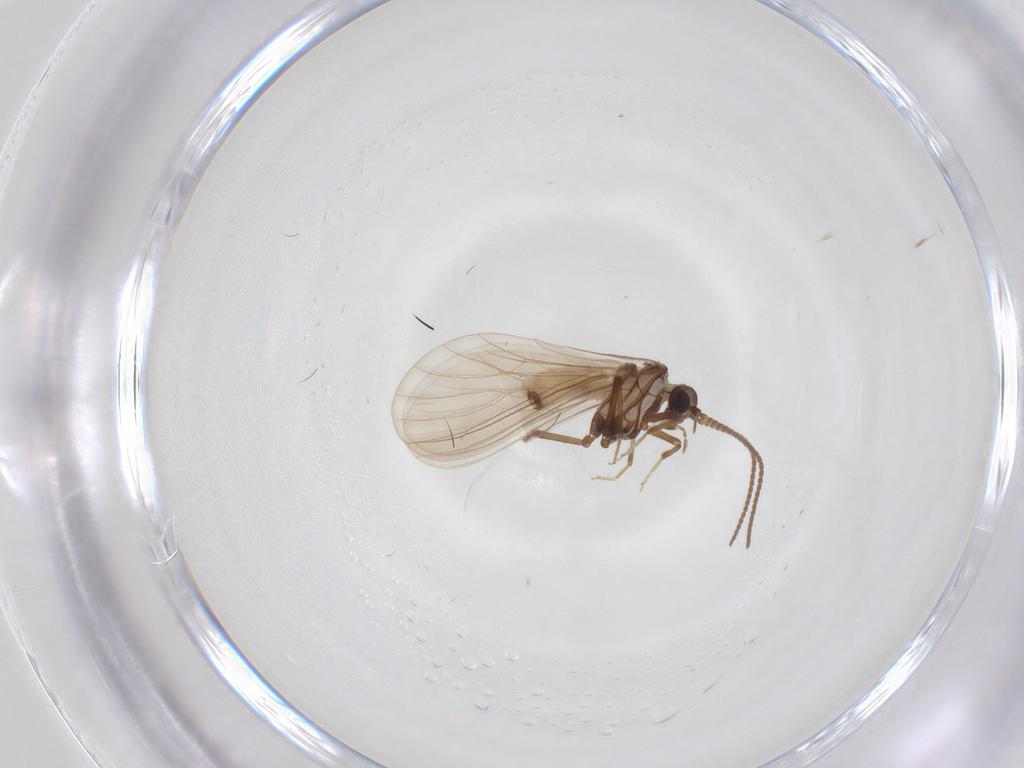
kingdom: Animalia
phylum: Arthropoda
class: Insecta
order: Neuroptera
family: Coniopterygidae
